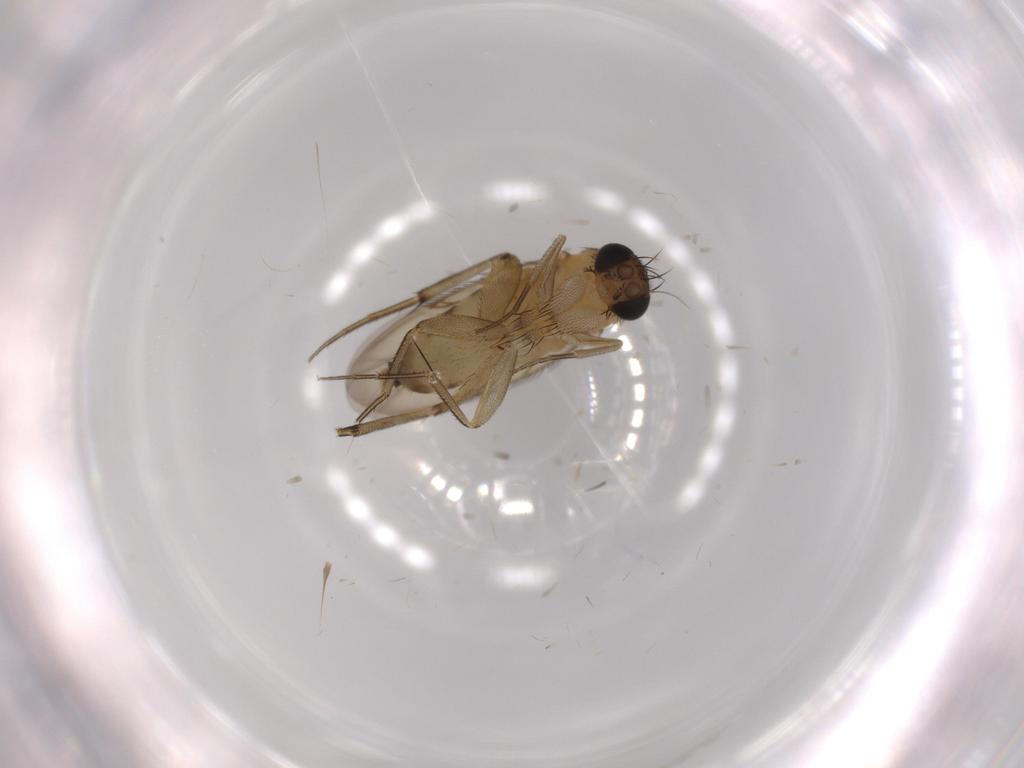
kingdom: Animalia
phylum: Arthropoda
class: Insecta
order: Diptera
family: Phoridae
